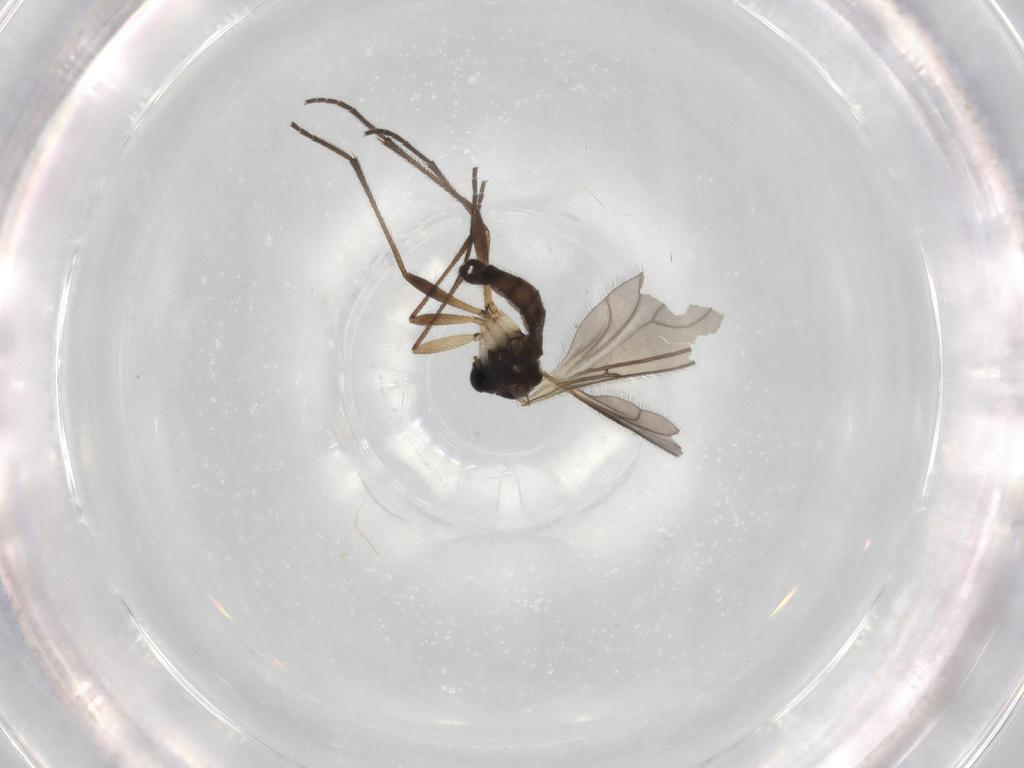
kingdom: Animalia
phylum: Arthropoda
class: Insecta
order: Diptera
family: Sciaridae
